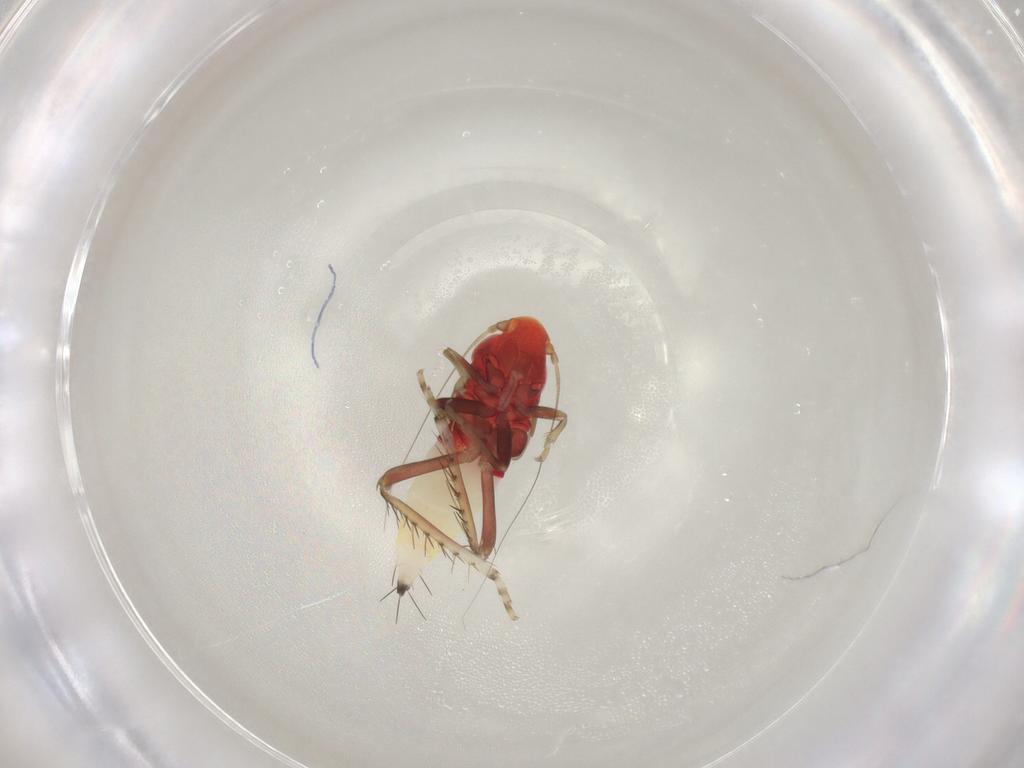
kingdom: Animalia
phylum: Arthropoda
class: Insecta
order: Hemiptera
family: Cicadellidae
